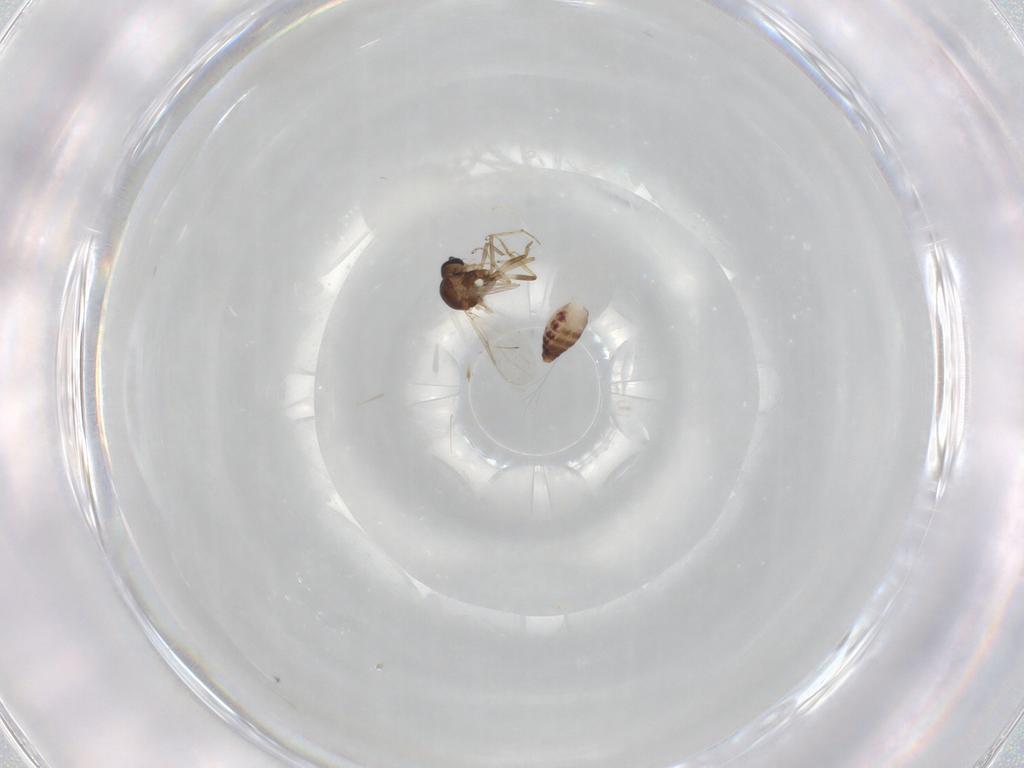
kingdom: Animalia
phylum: Arthropoda
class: Insecta
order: Diptera
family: Ceratopogonidae
